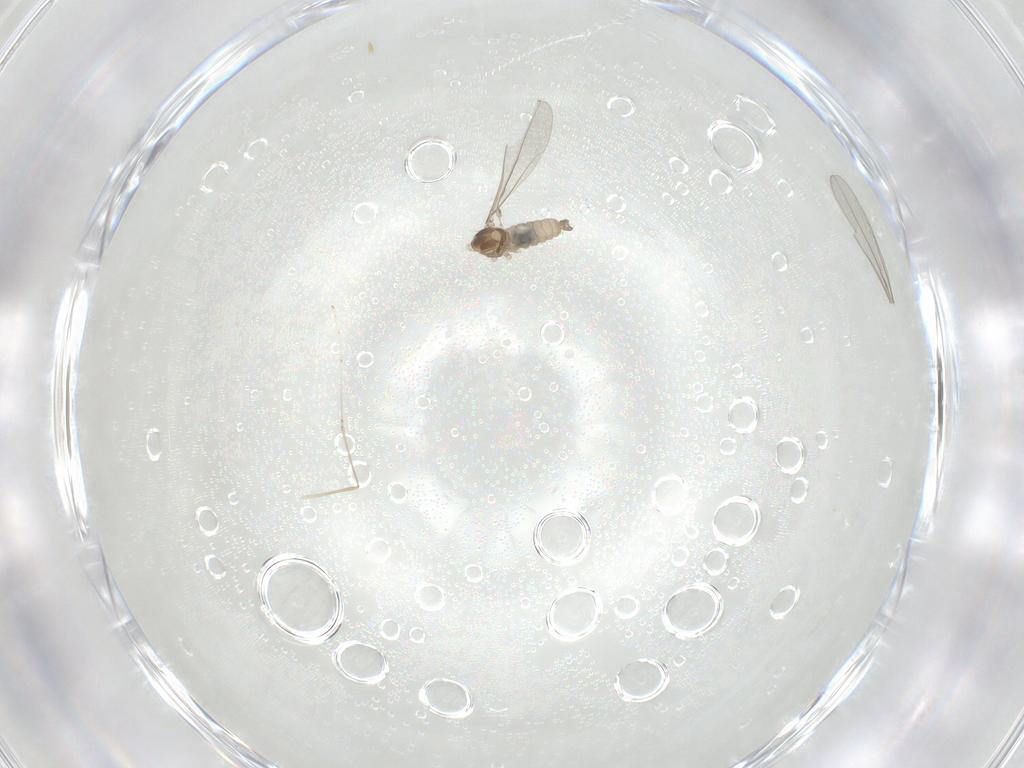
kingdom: Animalia
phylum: Arthropoda
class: Insecta
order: Diptera
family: Cecidomyiidae
